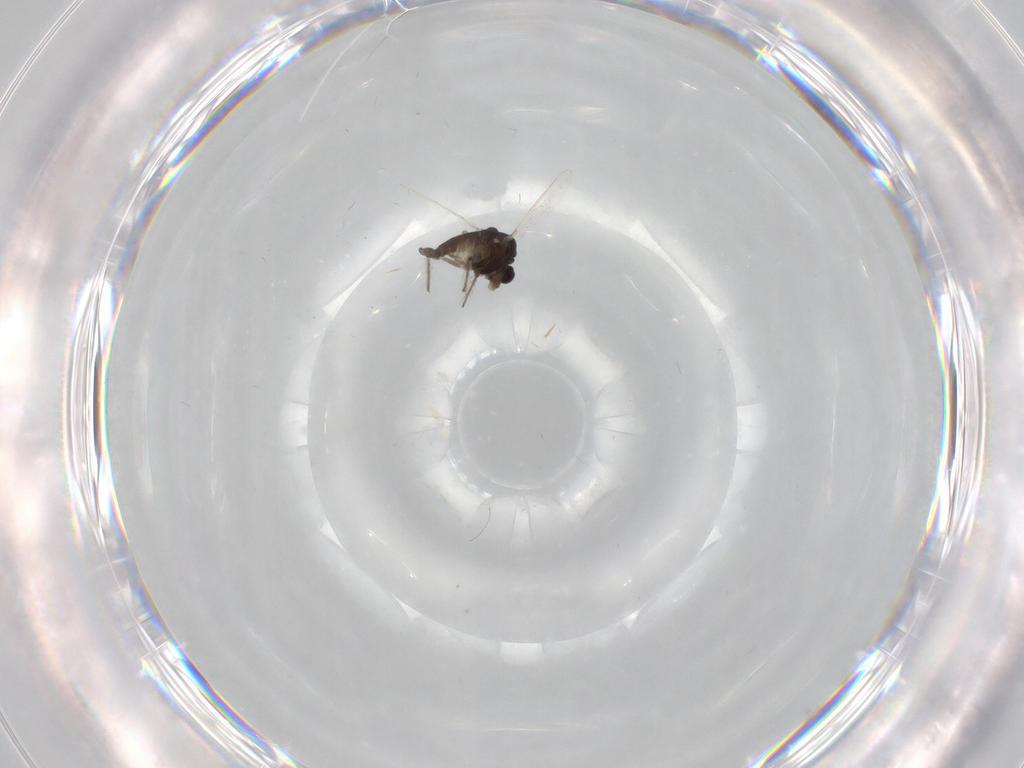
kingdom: Animalia
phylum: Arthropoda
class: Insecta
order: Diptera
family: Chironomidae
